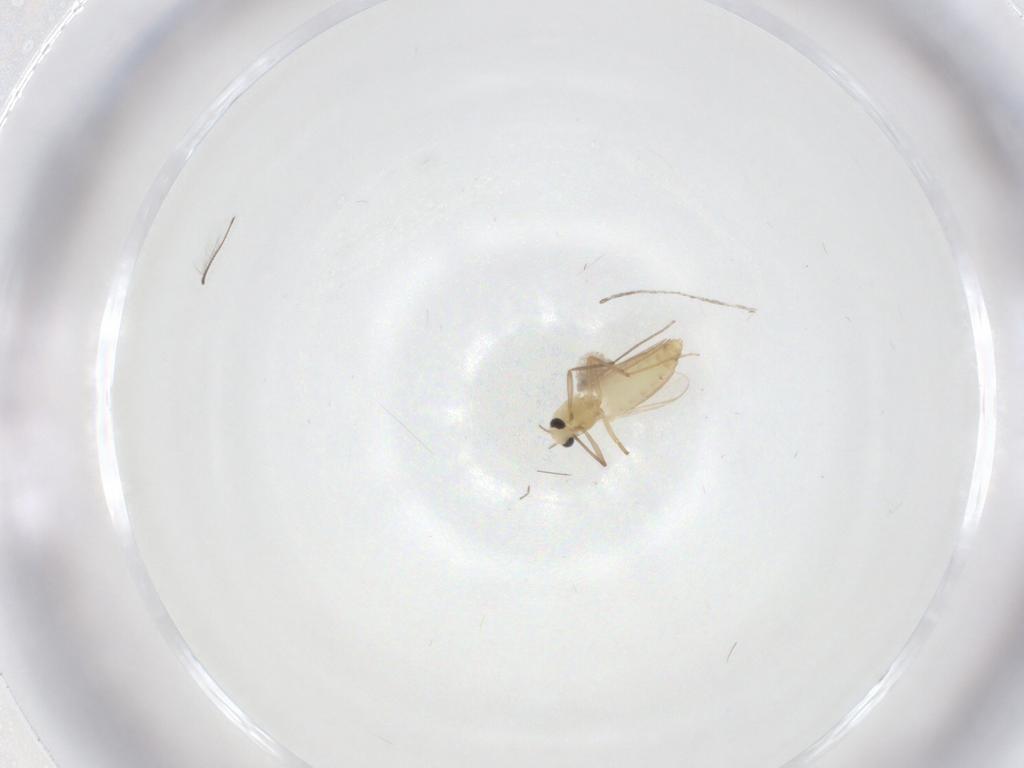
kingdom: Animalia
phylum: Arthropoda
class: Insecta
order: Diptera
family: Chironomidae
